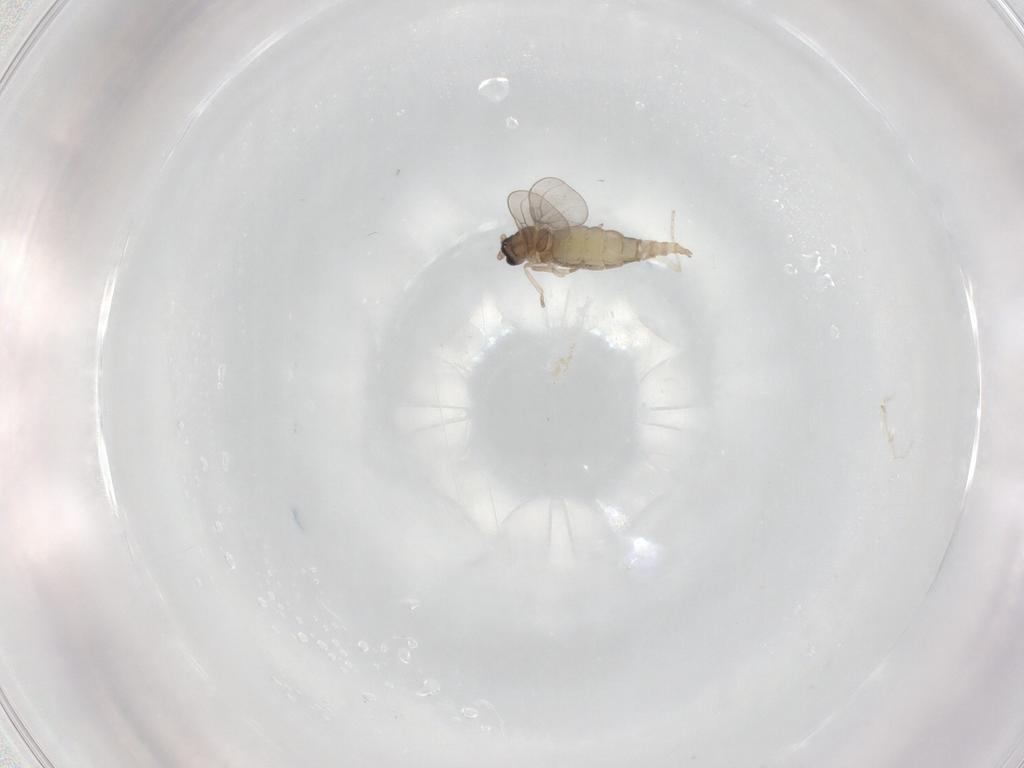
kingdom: Animalia
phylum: Arthropoda
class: Insecta
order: Diptera
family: Cecidomyiidae
